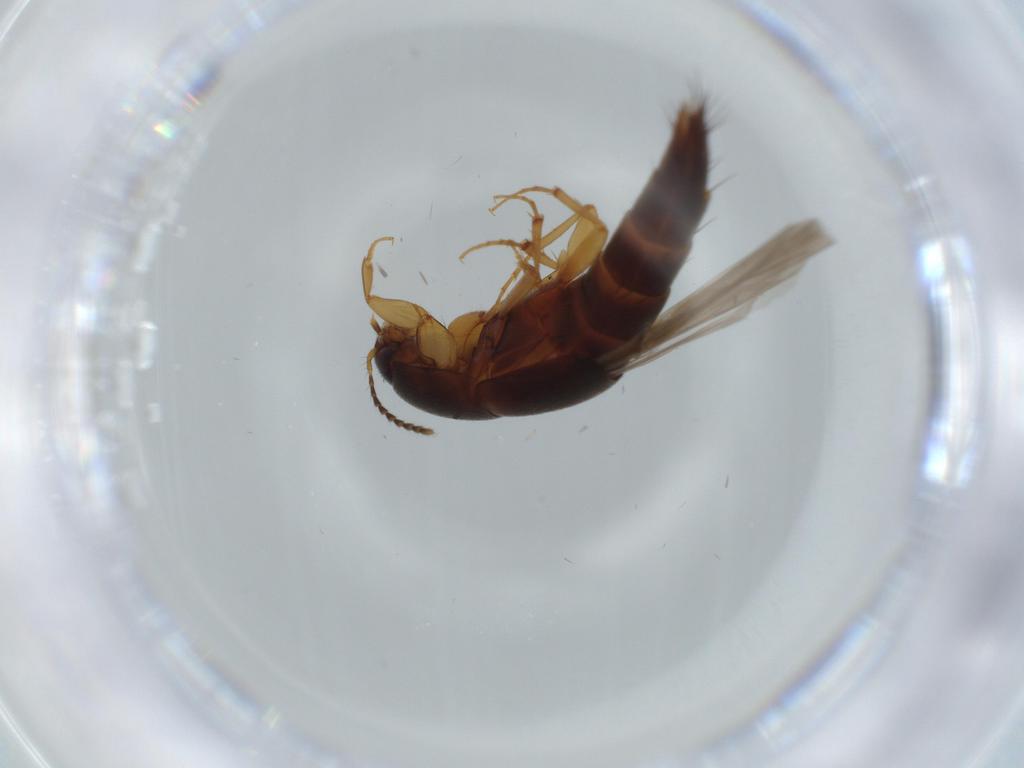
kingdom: Animalia
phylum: Arthropoda
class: Insecta
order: Coleoptera
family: Staphylinidae
